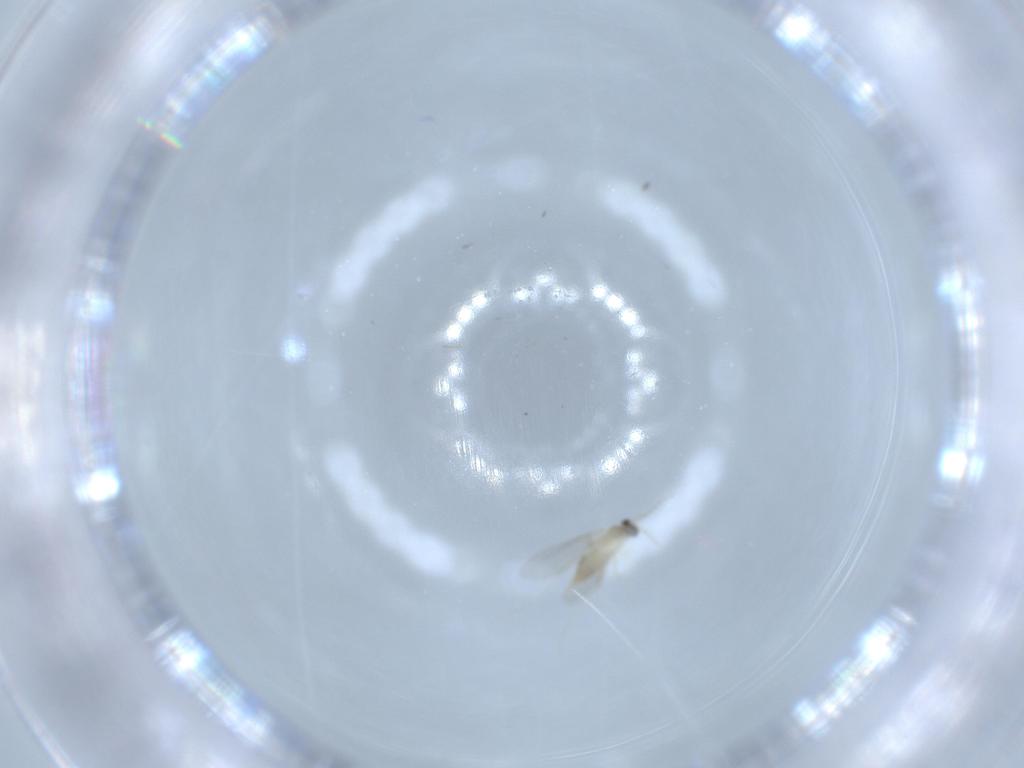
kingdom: Animalia
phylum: Arthropoda
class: Insecta
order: Diptera
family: Cecidomyiidae
